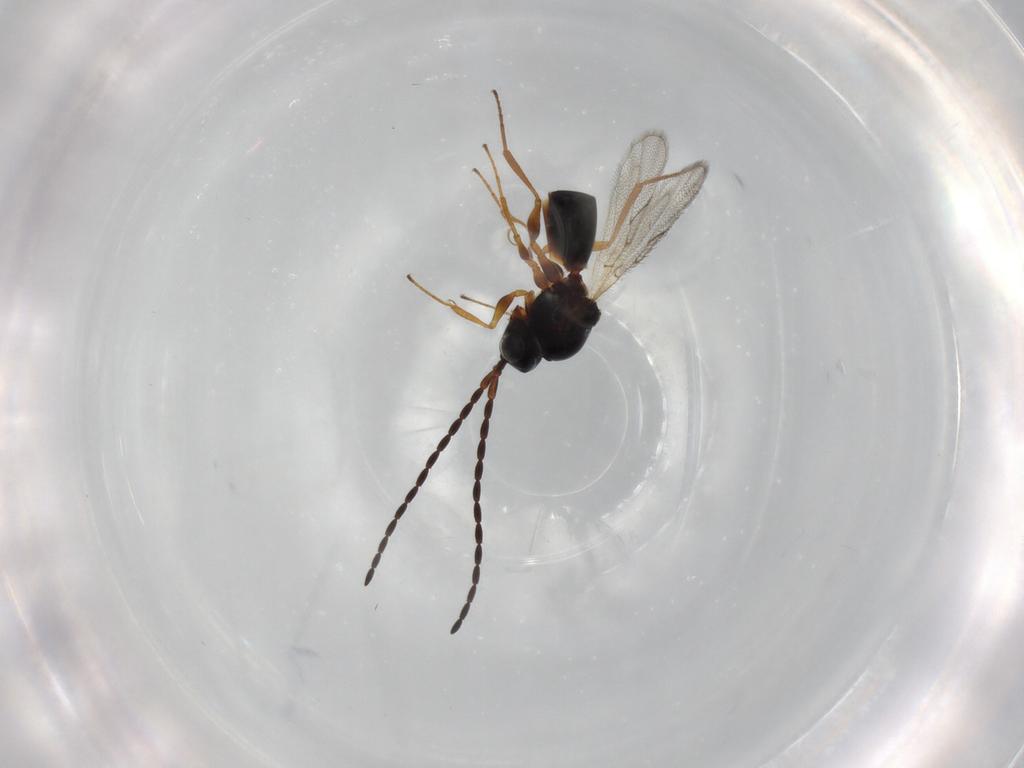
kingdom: Animalia
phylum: Arthropoda
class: Insecta
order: Hymenoptera
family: Figitidae
